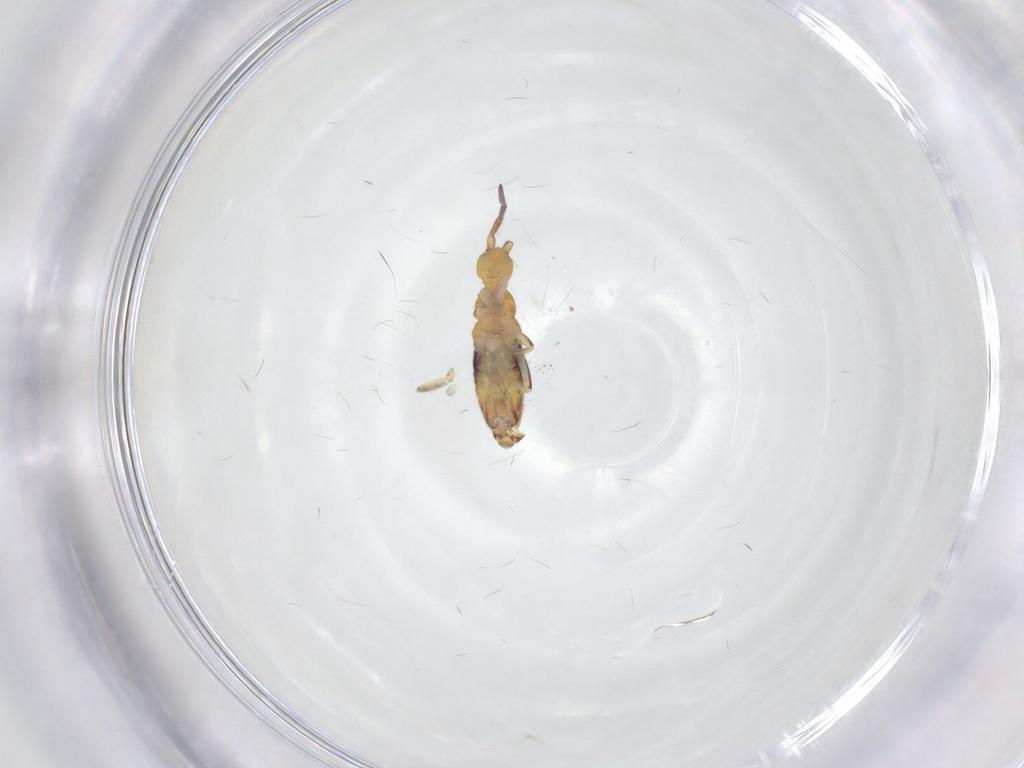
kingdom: Animalia
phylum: Arthropoda
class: Collembola
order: Entomobryomorpha
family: Entomobryidae
